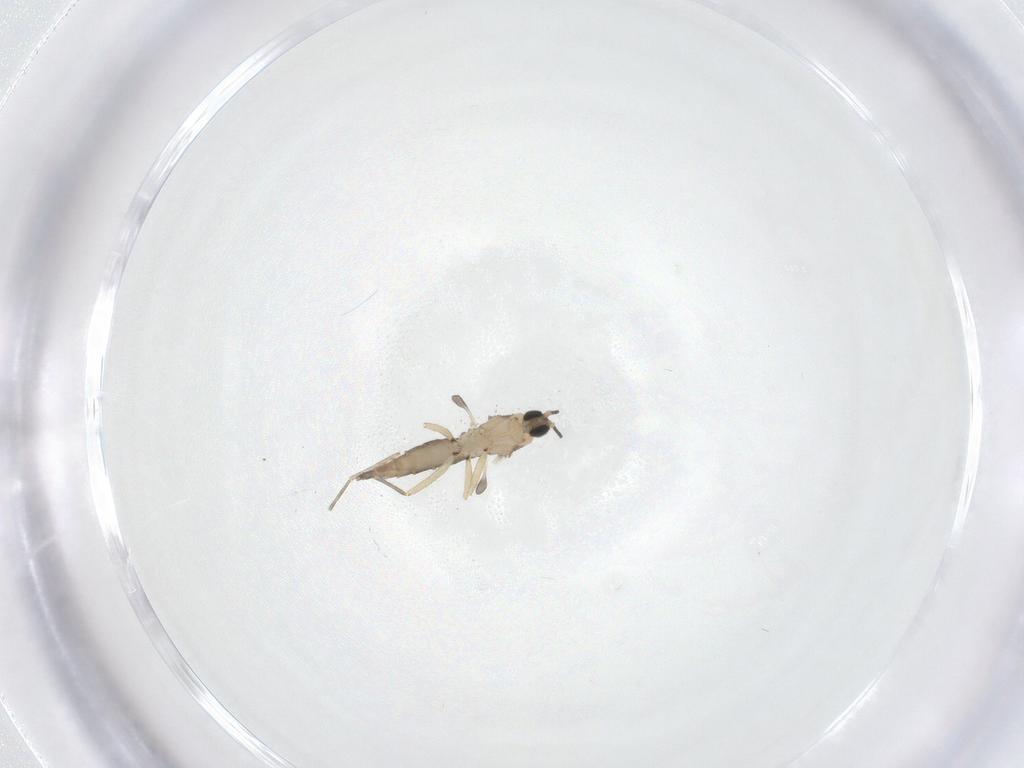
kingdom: Animalia
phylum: Arthropoda
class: Insecta
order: Diptera
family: Sciaridae
